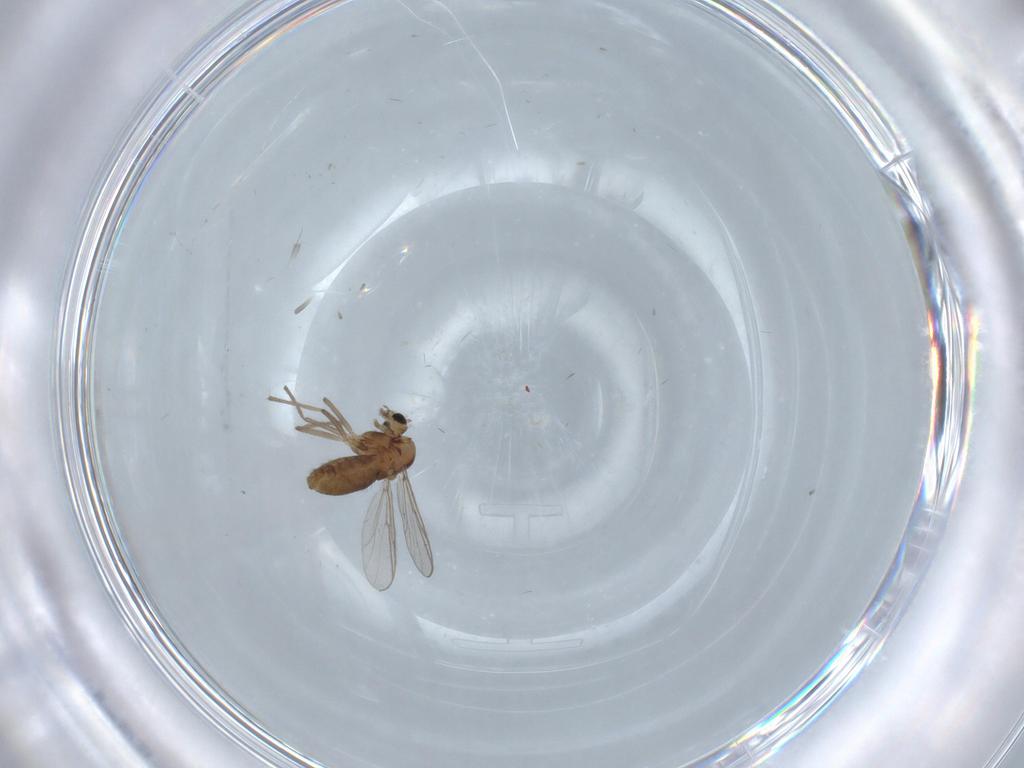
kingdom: Animalia
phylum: Arthropoda
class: Insecta
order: Diptera
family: Psychodidae
